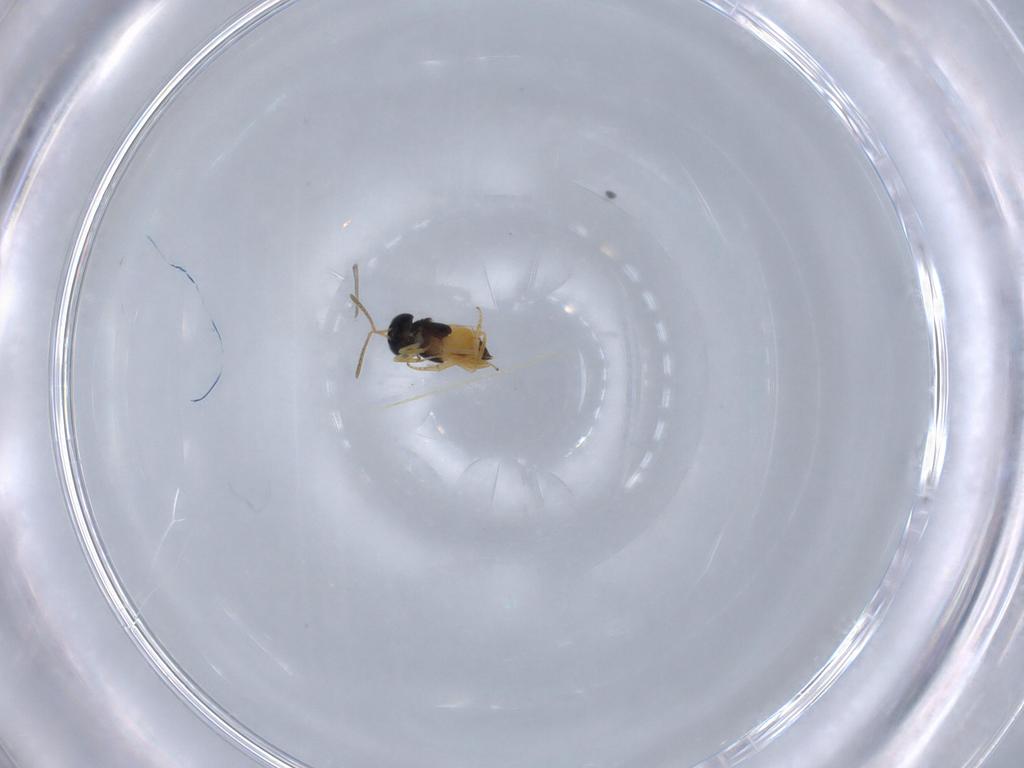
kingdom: Animalia
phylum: Arthropoda
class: Insecta
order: Hymenoptera
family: Encyrtidae
